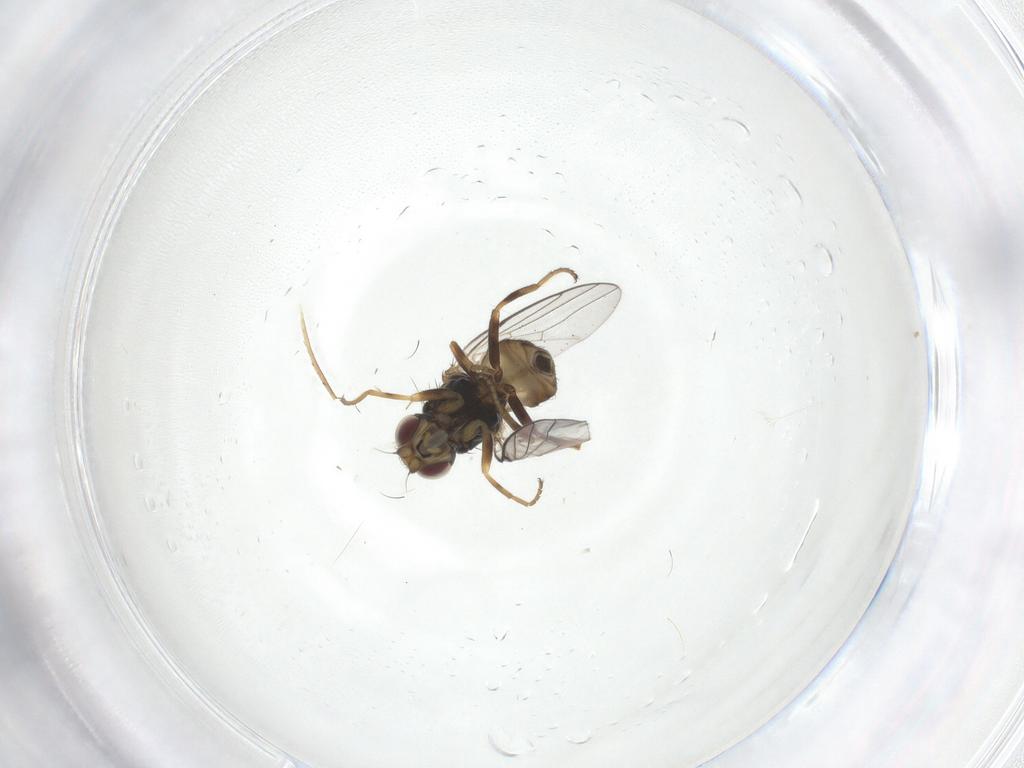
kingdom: Animalia
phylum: Arthropoda
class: Insecta
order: Diptera
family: Chloropidae
